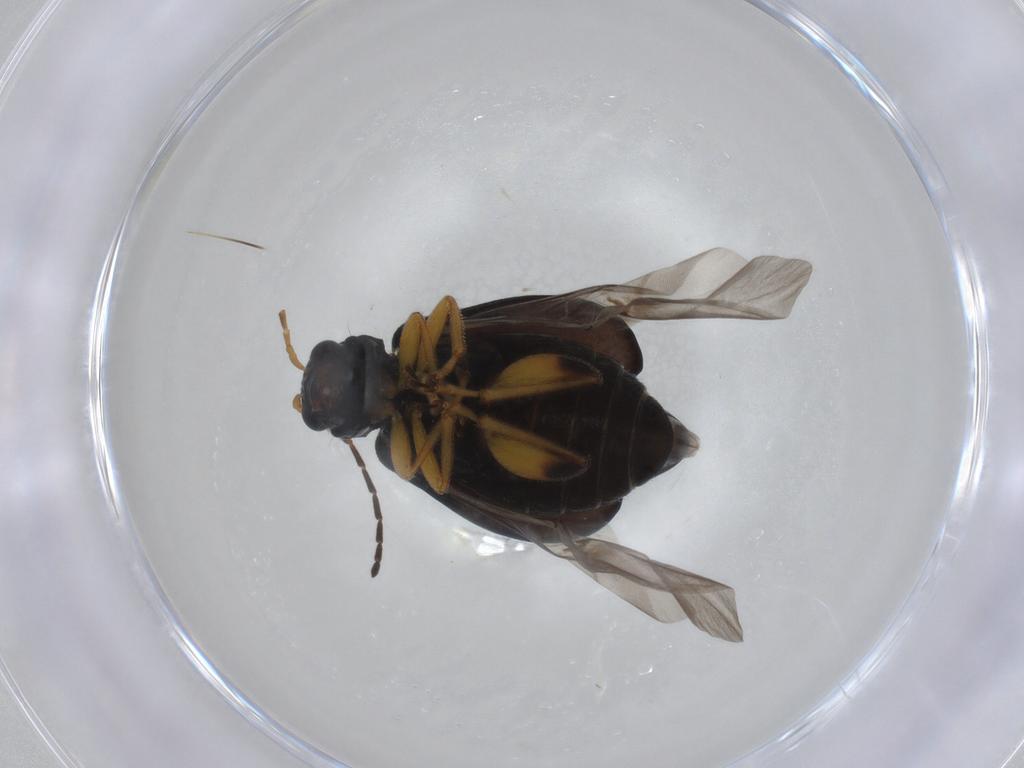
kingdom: Animalia
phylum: Arthropoda
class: Insecta
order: Coleoptera
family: Chrysomelidae
